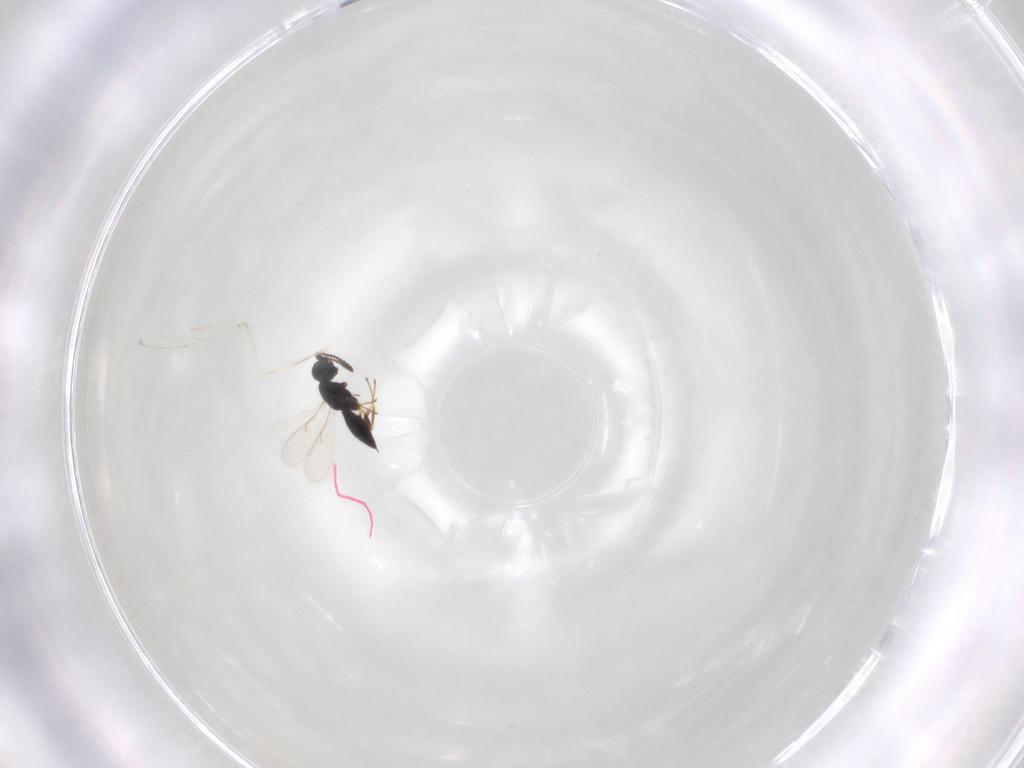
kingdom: Animalia
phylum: Arthropoda
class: Insecta
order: Hymenoptera
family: Scelionidae
